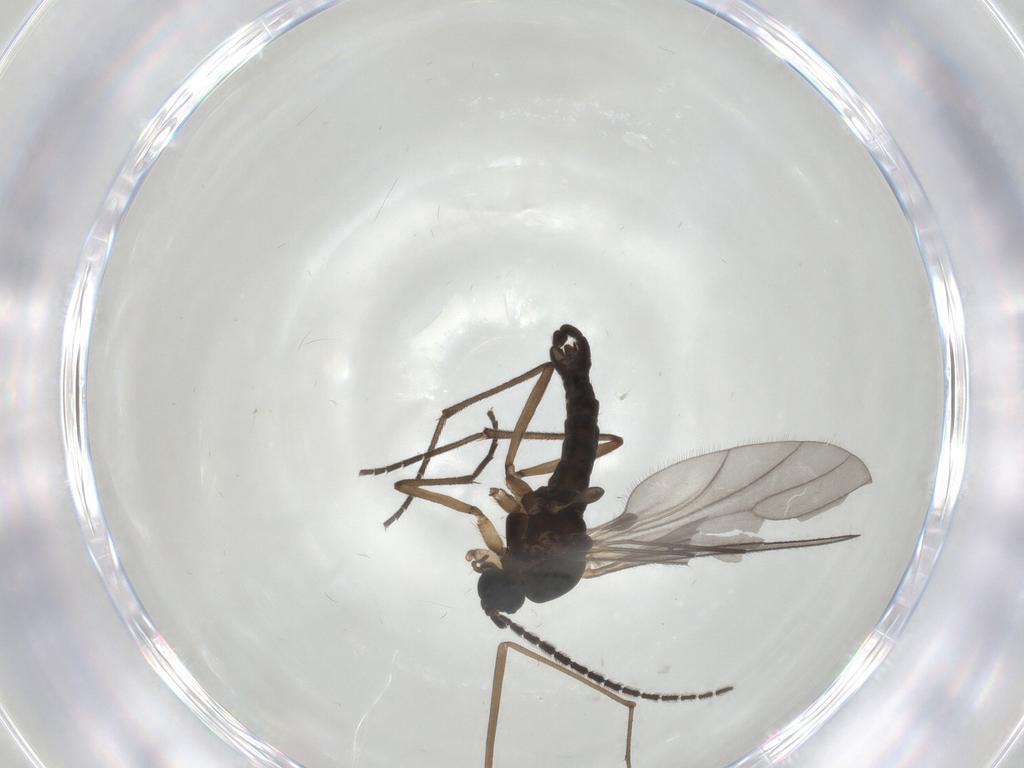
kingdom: Animalia
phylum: Arthropoda
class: Insecta
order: Diptera
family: Sciaridae
